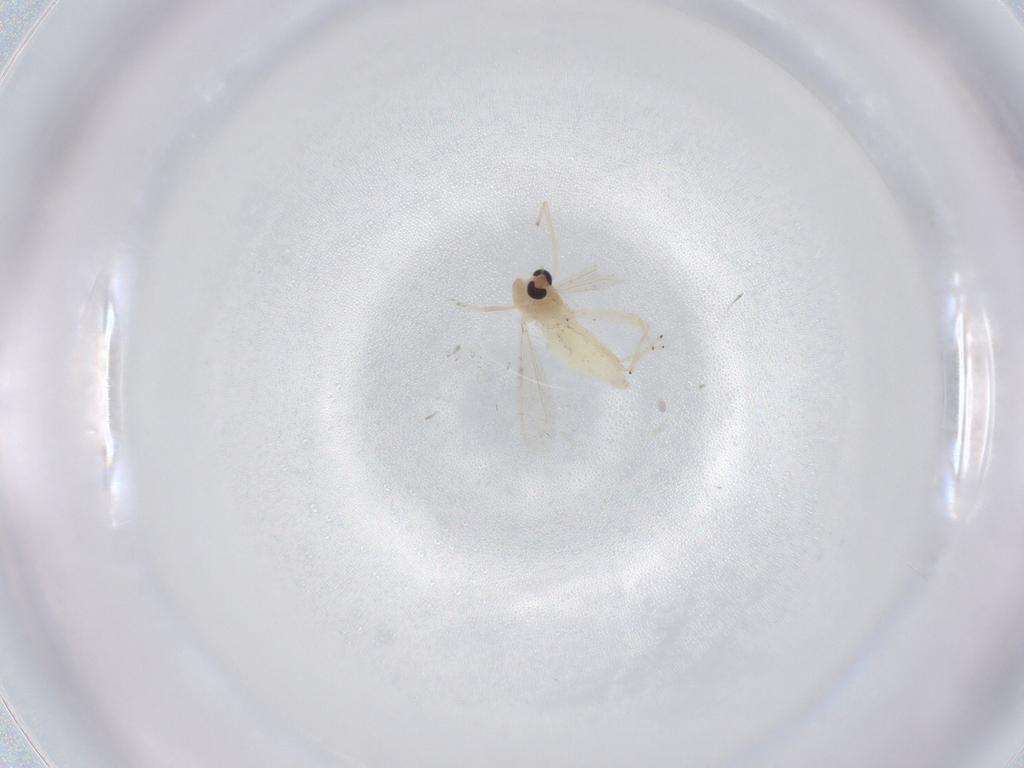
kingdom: Animalia
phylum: Arthropoda
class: Insecta
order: Diptera
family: Chironomidae
